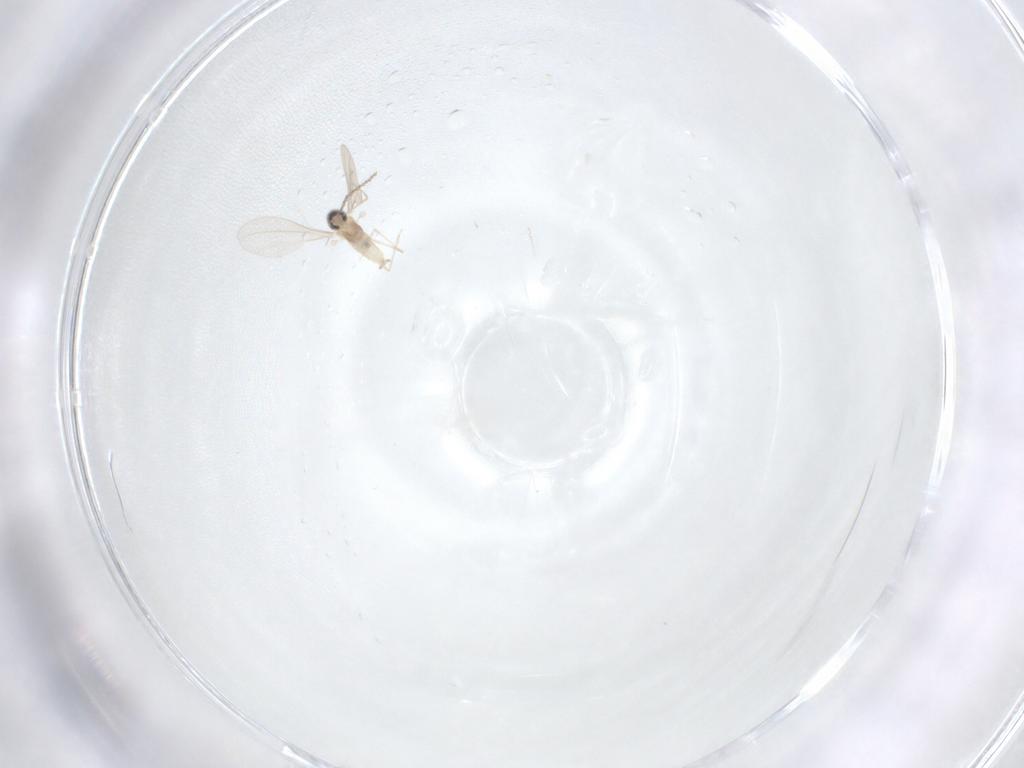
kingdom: Animalia
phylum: Arthropoda
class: Insecta
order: Diptera
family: Cecidomyiidae
